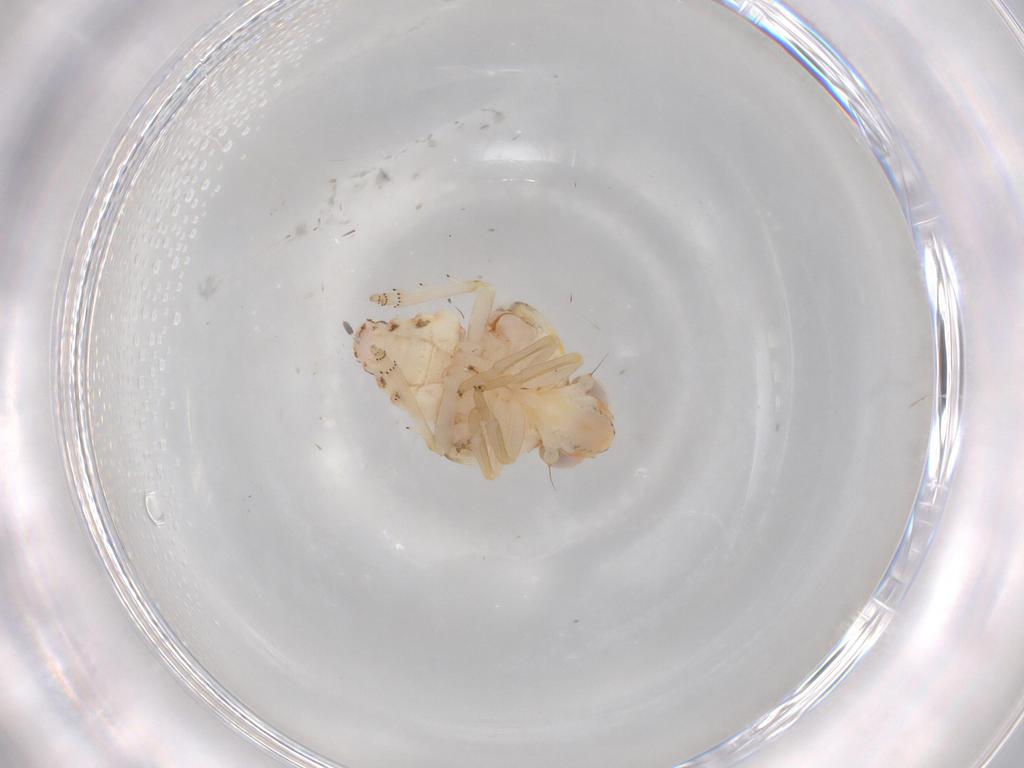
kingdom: Animalia
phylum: Arthropoda
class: Insecta
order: Hemiptera
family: Nogodinidae
